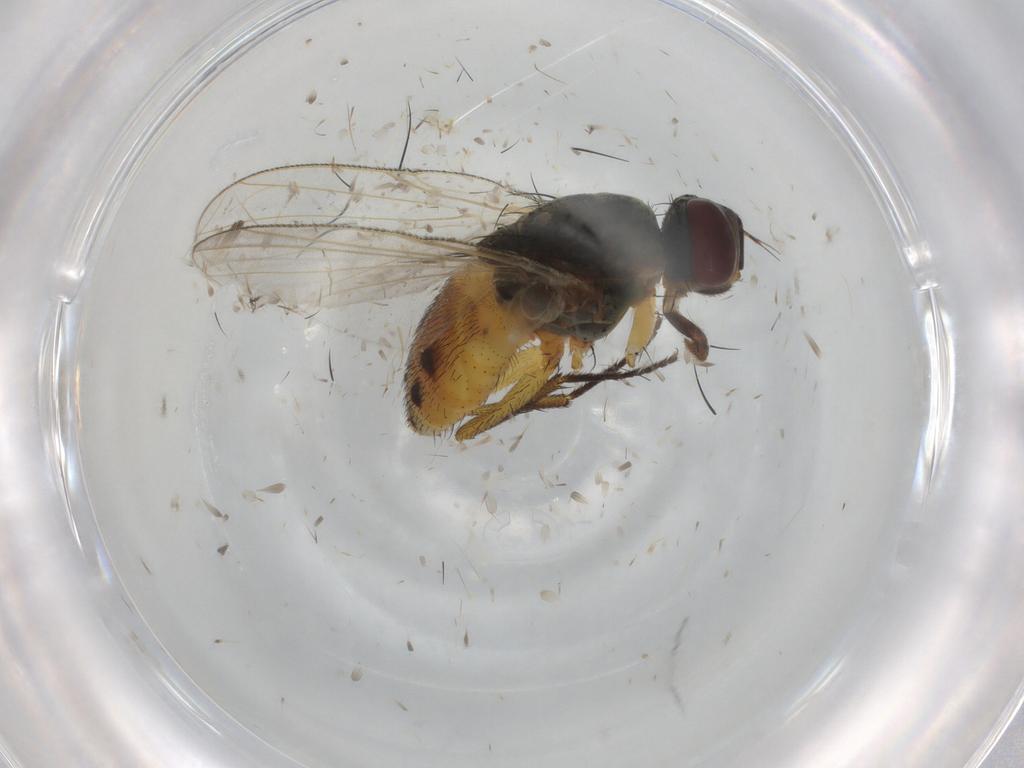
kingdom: Animalia
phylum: Arthropoda
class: Insecta
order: Diptera
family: Muscidae
